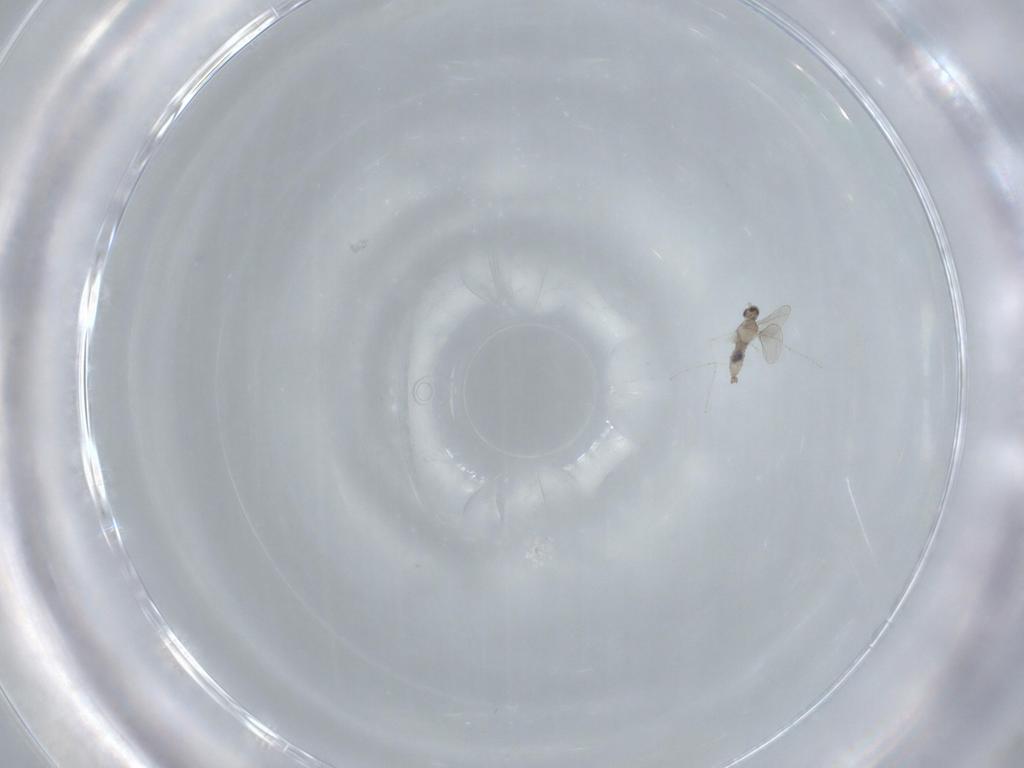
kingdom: Animalia
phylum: Arthropoda
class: Insecta
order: Diptera
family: Cecidomyiidae
